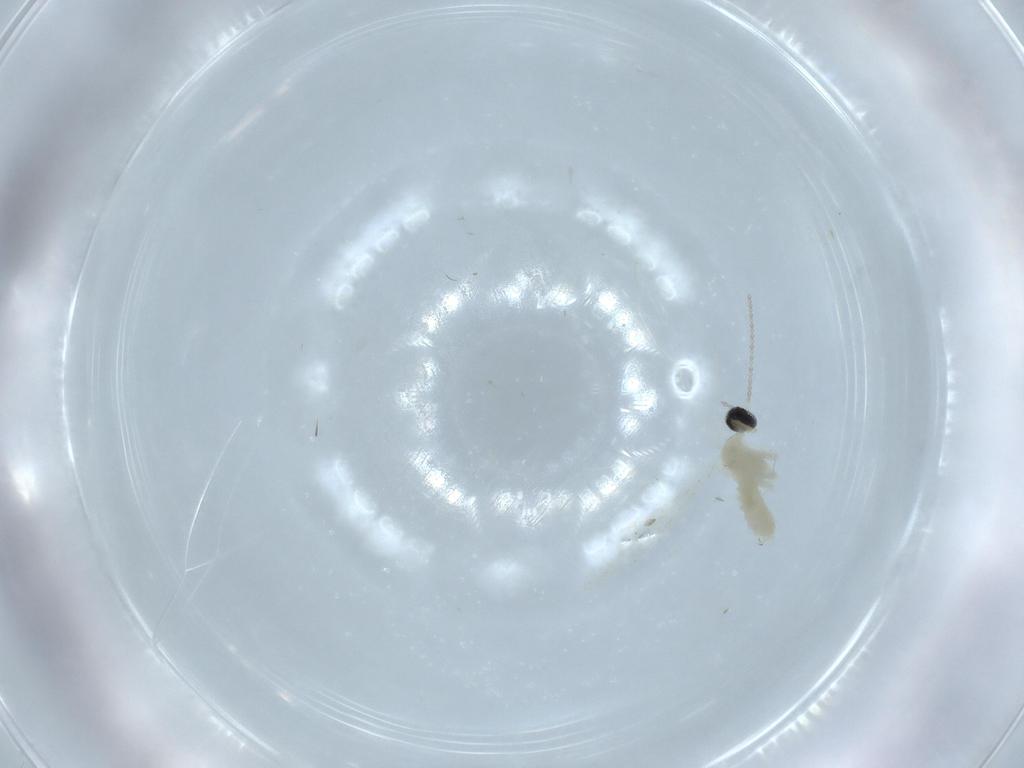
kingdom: Animalia
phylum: Arthropoda
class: Insecta
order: Diptera
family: Cecidomyiidae
